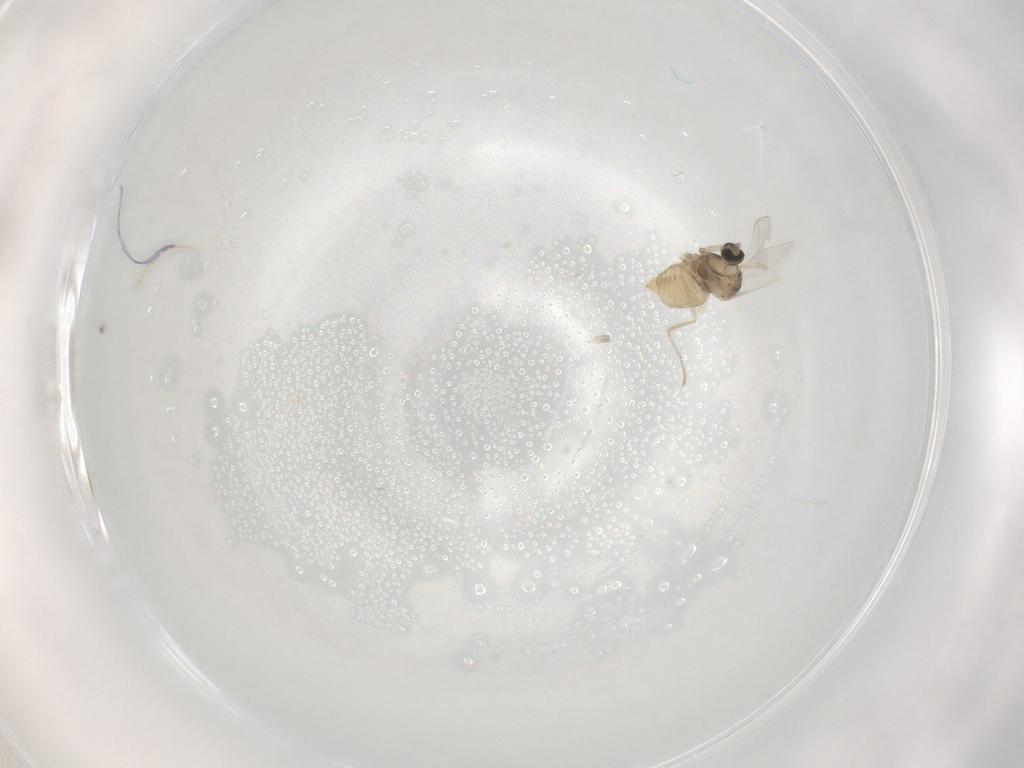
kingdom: Animalia
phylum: Arthropoda
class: Insecta
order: Diptera
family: Cecidomyiidae
